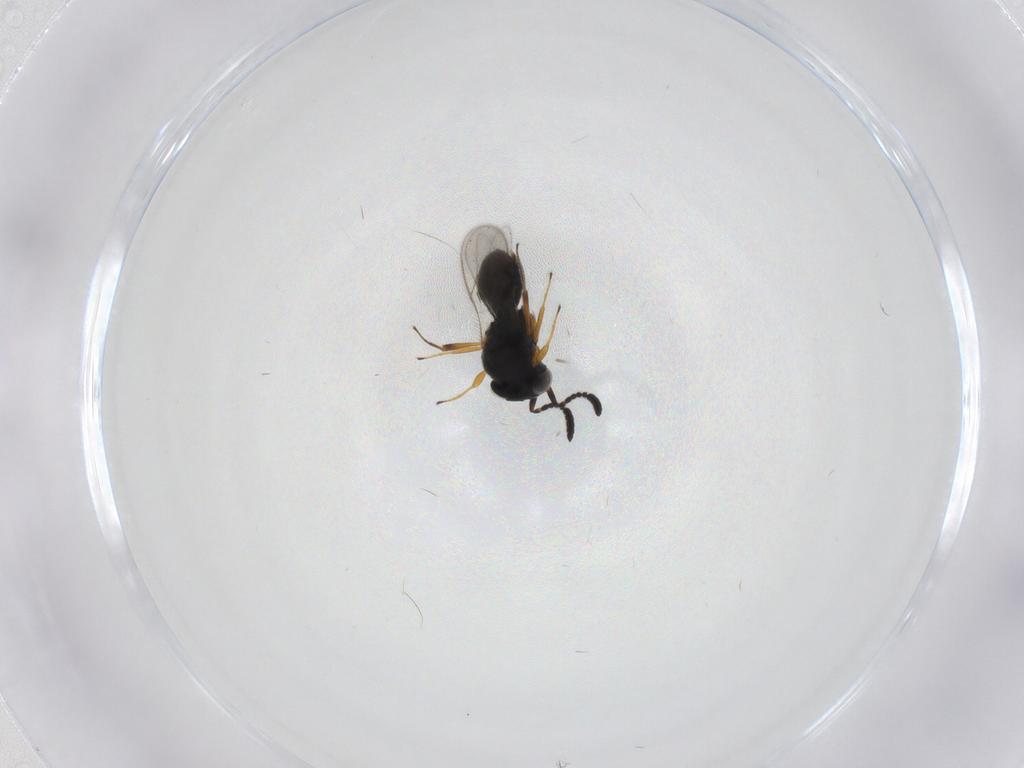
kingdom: Animalia
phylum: Arthropoda
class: Insecta
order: Hymenoptera
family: Scelionidae
